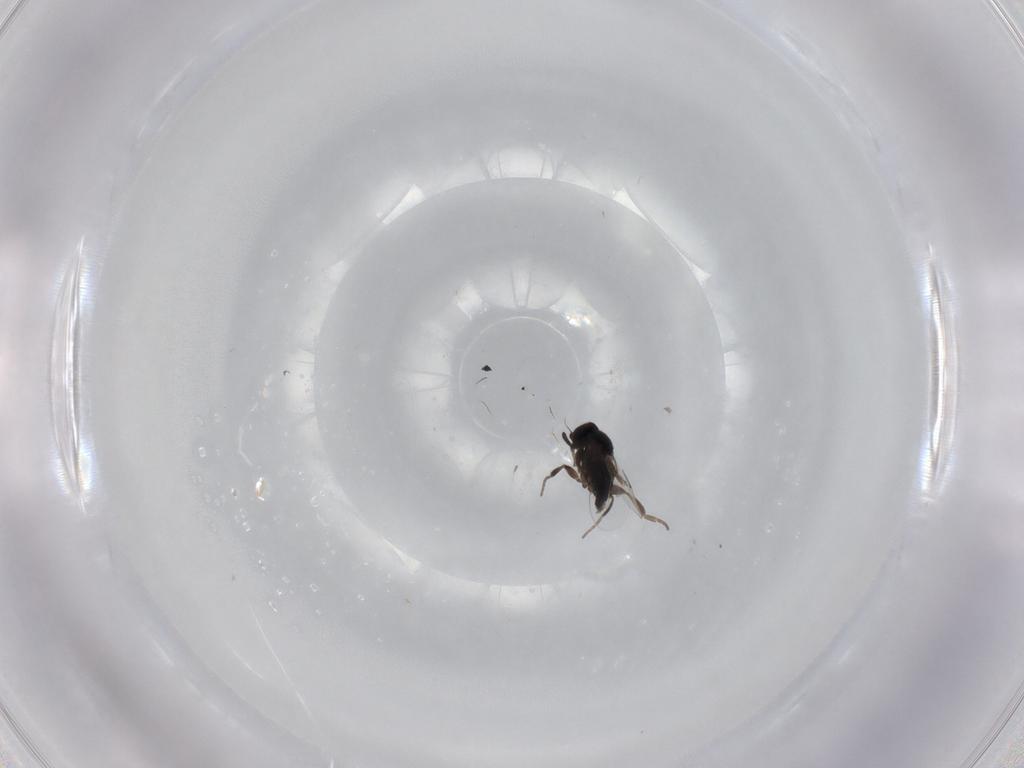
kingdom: Animalia
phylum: Arthropoda
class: Insecta
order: Diptera
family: Phoridae
